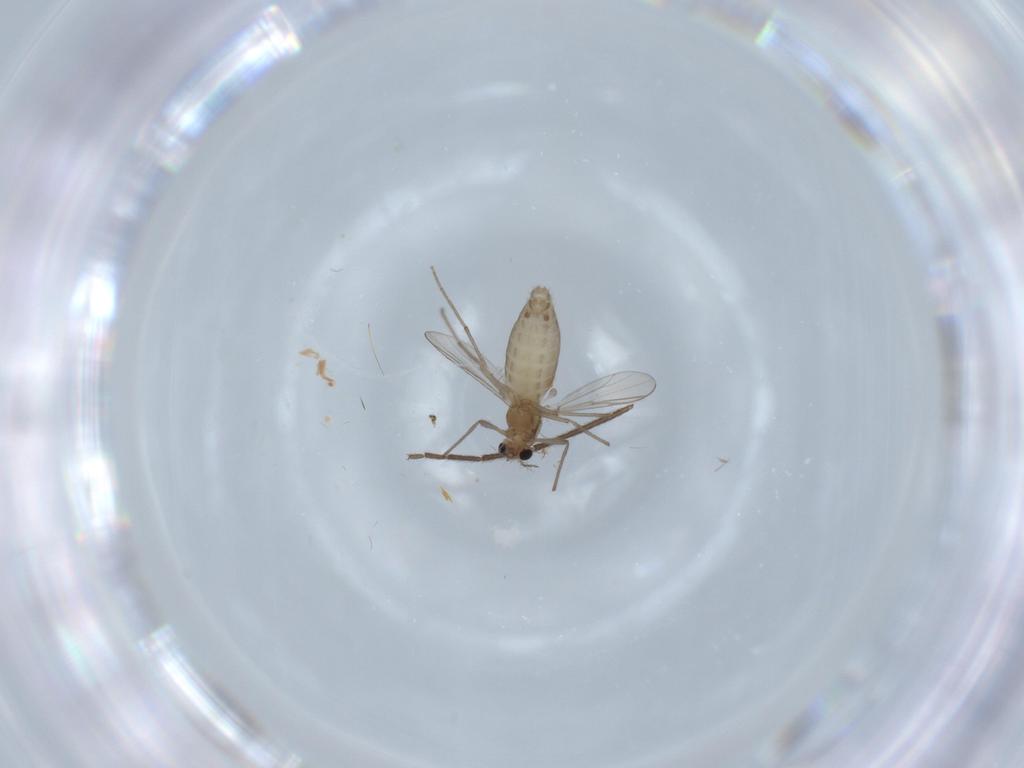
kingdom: Animalia
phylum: Arthropoda
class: Insecta
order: Diptera
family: Chironomidae
